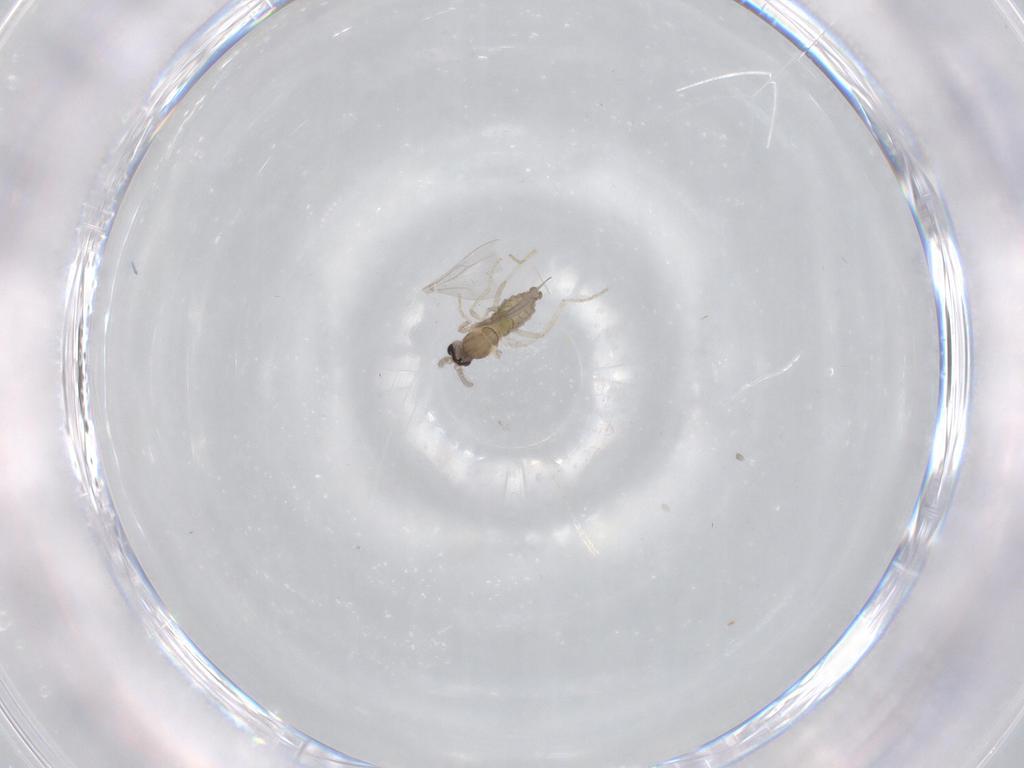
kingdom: Animalia
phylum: Arthropoda
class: Insecta
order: Diptera
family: Cecidomyiidae
